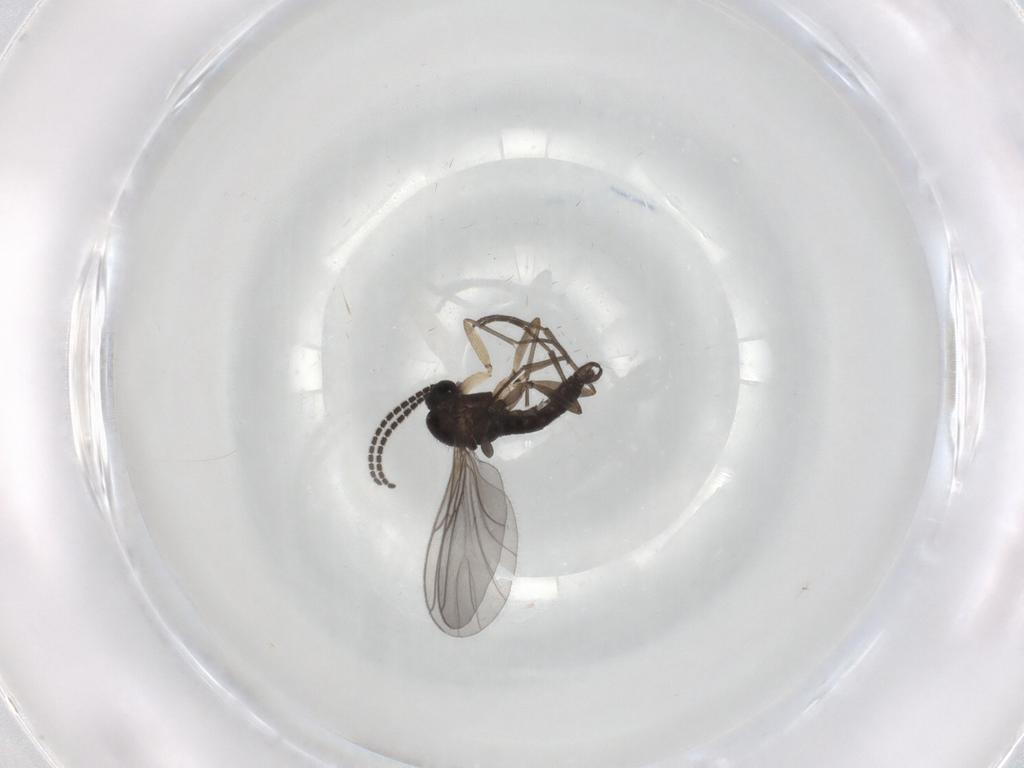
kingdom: Animalia
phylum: Arthropoda
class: Insecta
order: Diptera
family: Sciaridae
